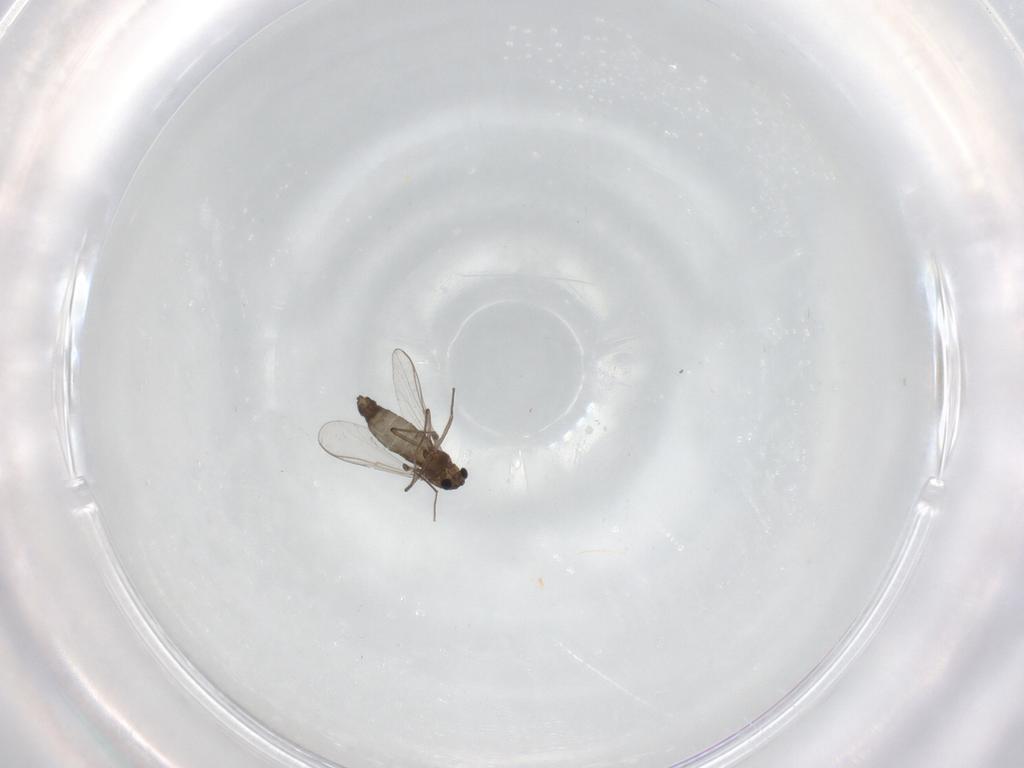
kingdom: Animalia
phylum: Arthropoda
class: Insecta
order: Diptera
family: Chironomidae
